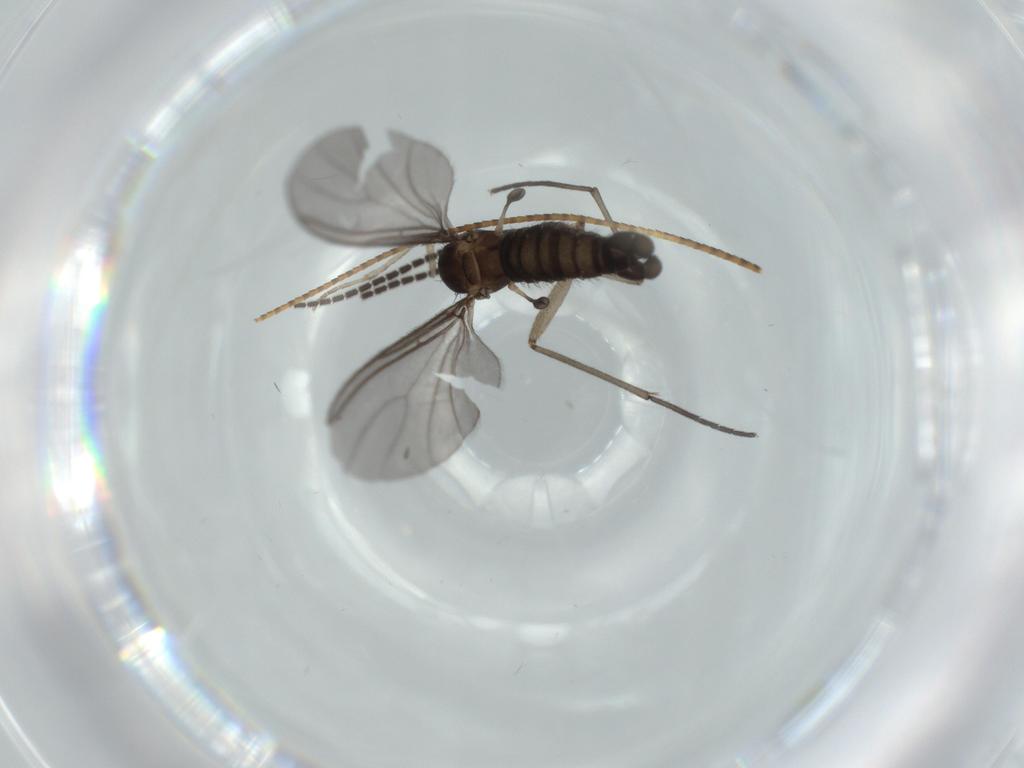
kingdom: Animalia
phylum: Arthropoda
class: Insecta
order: Diptera
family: Sciaridae
